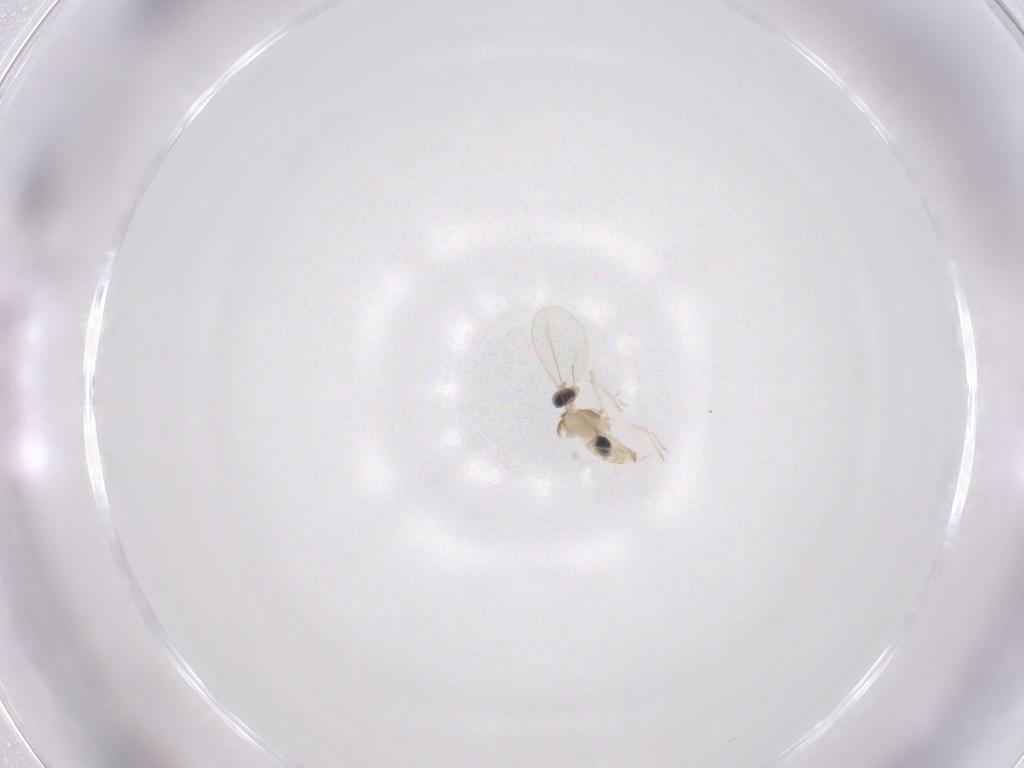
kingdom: Animalia
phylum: Arthropoda
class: Insecta
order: Diptera
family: Cecidomyiidae
